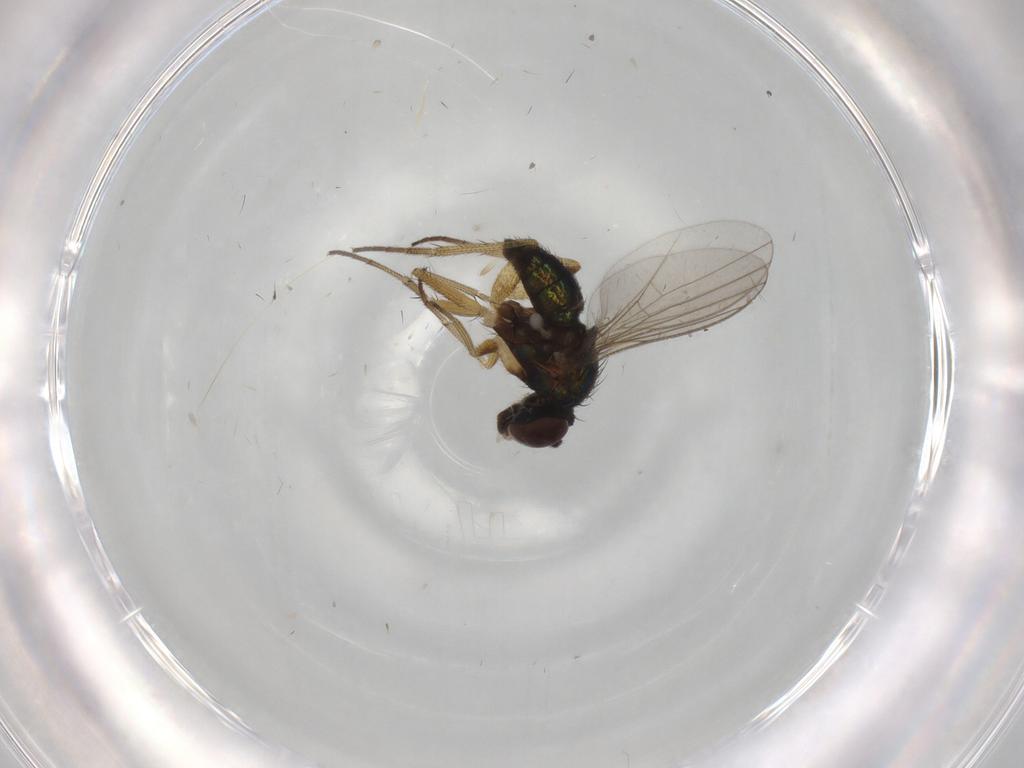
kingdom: Animalia
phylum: Arthropoda
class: Insecta
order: Diptera
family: Dolichopodidae
